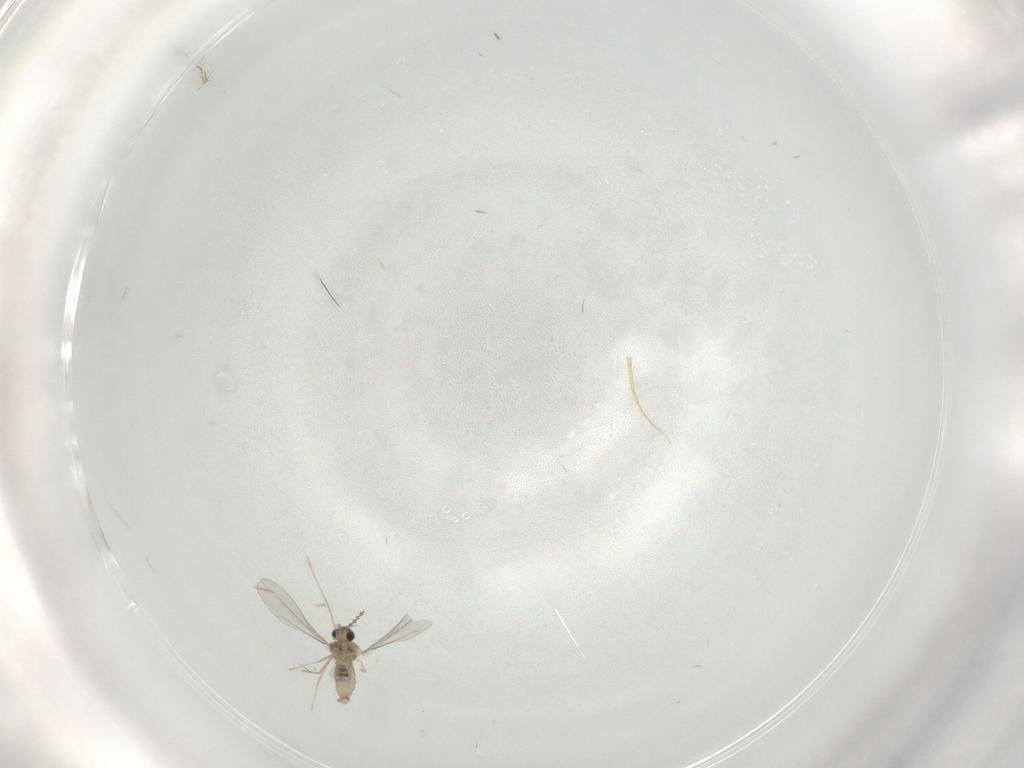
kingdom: Animalia
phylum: Arthropoda
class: Insecta
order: Diptera
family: Cecidomyiidae
